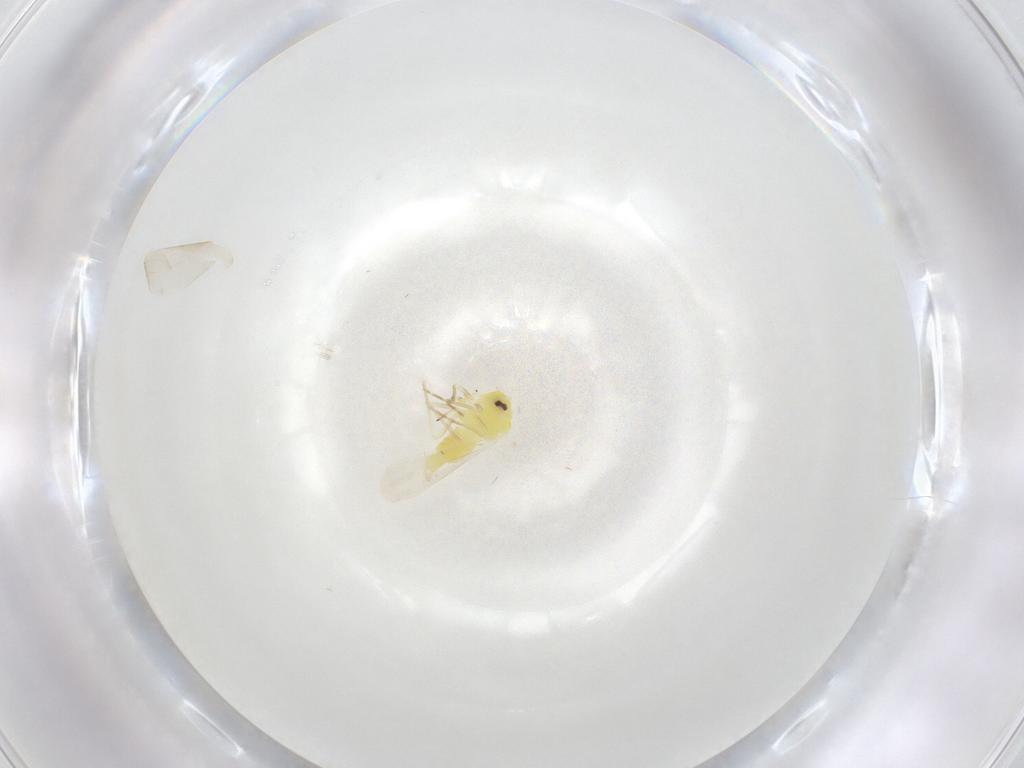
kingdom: Animalia
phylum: Arthropoda
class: Insecta
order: Hemiptera
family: Aleyrodidae
